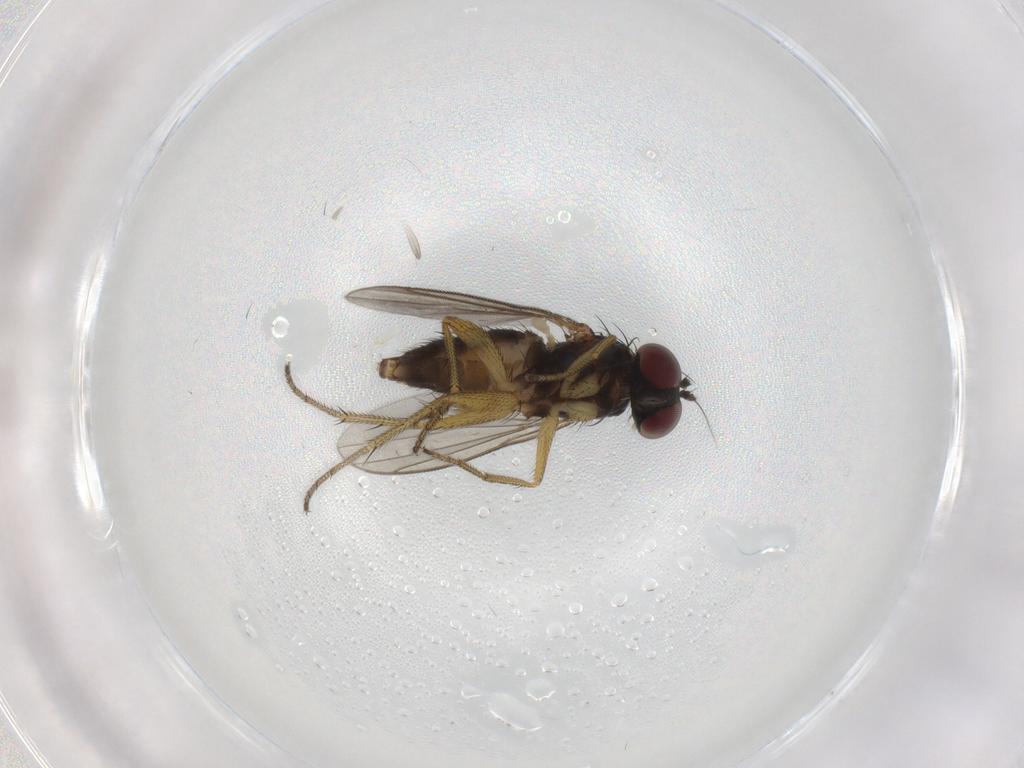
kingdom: Animalia
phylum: Arthropoda
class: Insecta
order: Diptera
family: Dolichopodidae
